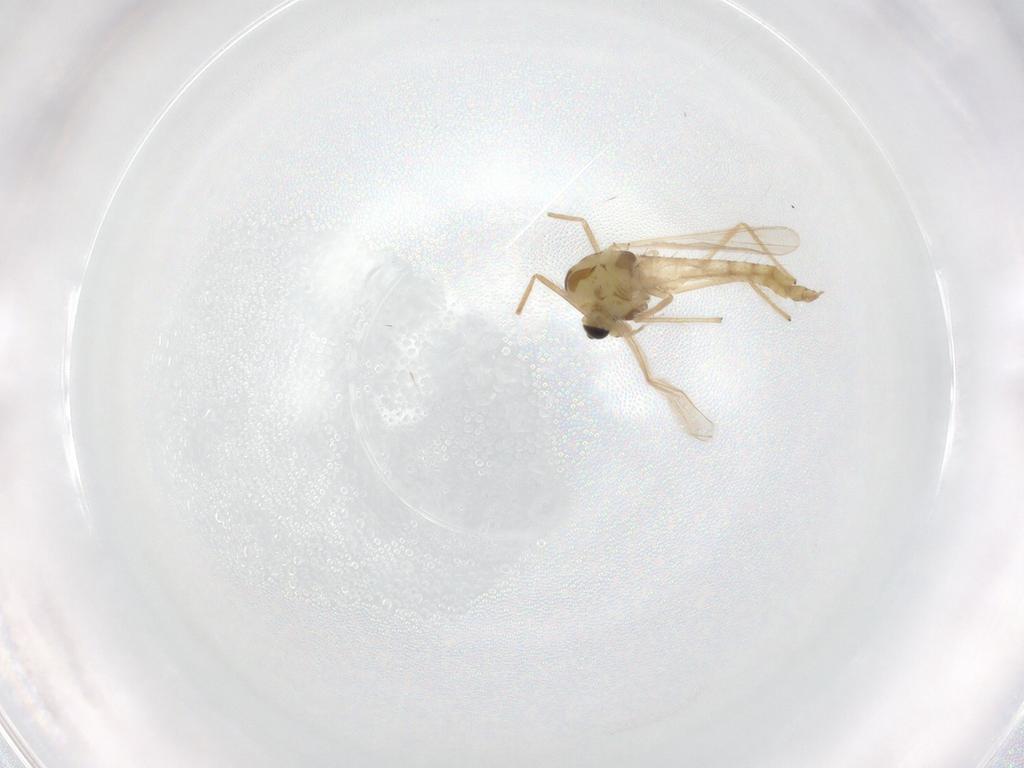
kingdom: Animalia
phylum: Arthropoda
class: Insecta
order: Diptera
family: Chironomidae
